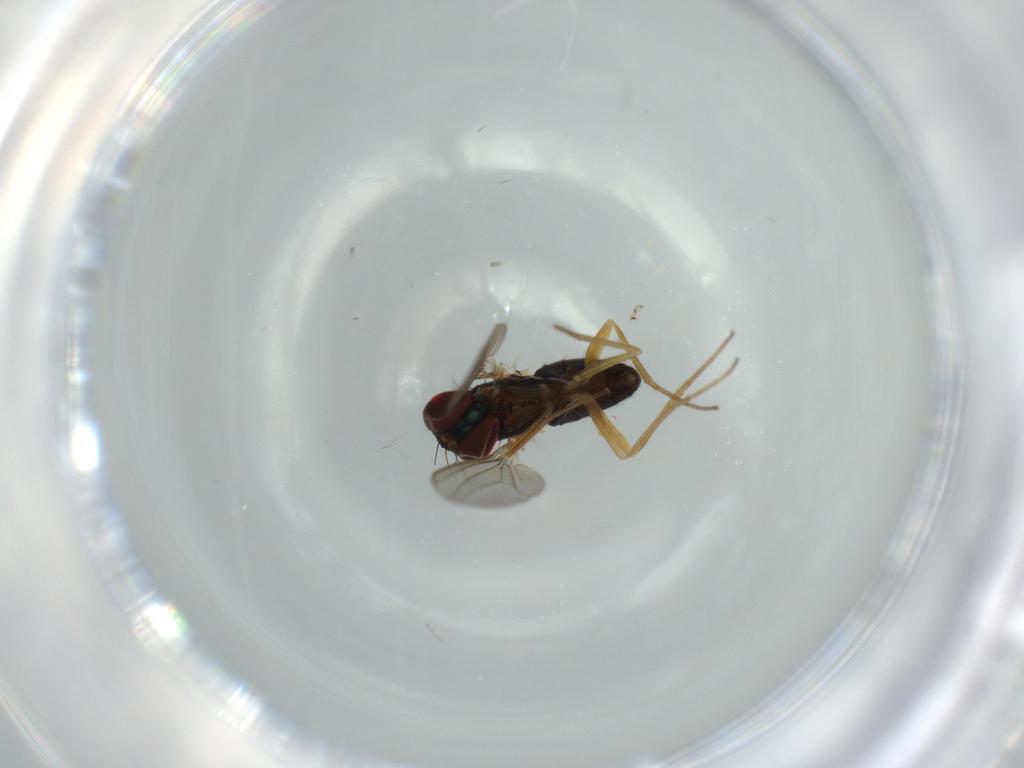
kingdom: Animalia
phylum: Arthropoda
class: Insecta
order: Diptera
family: Ceratopogonidae
